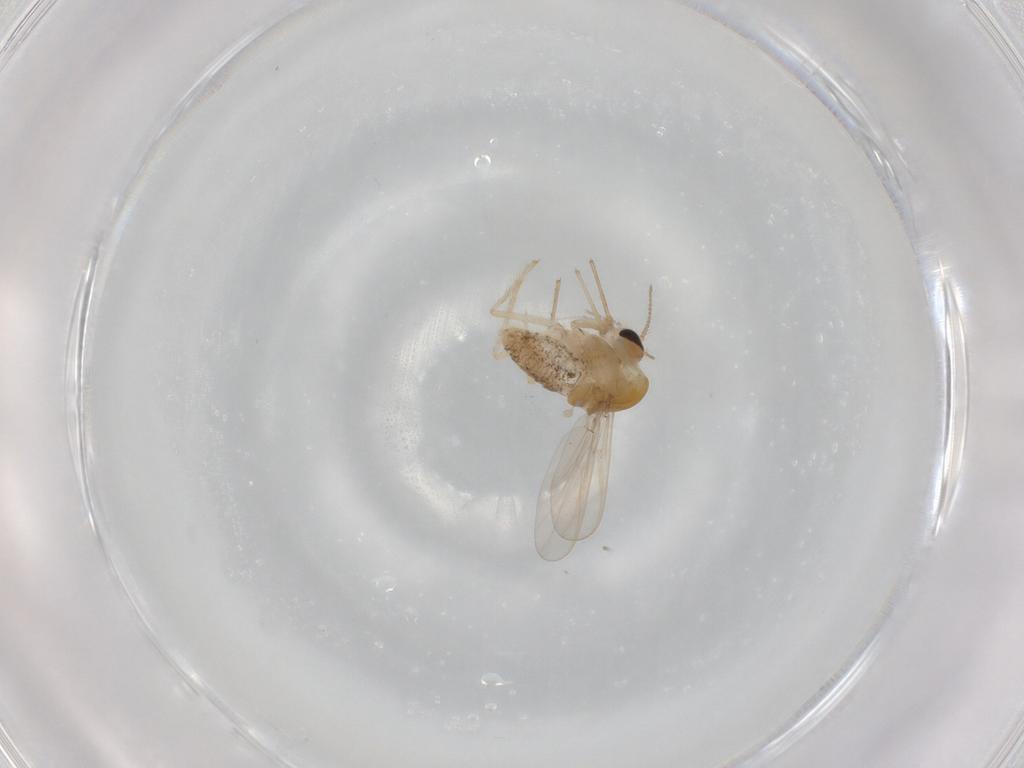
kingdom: Animalia
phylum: Arthropoda
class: Insecta
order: Diptera
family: Chironomidae
